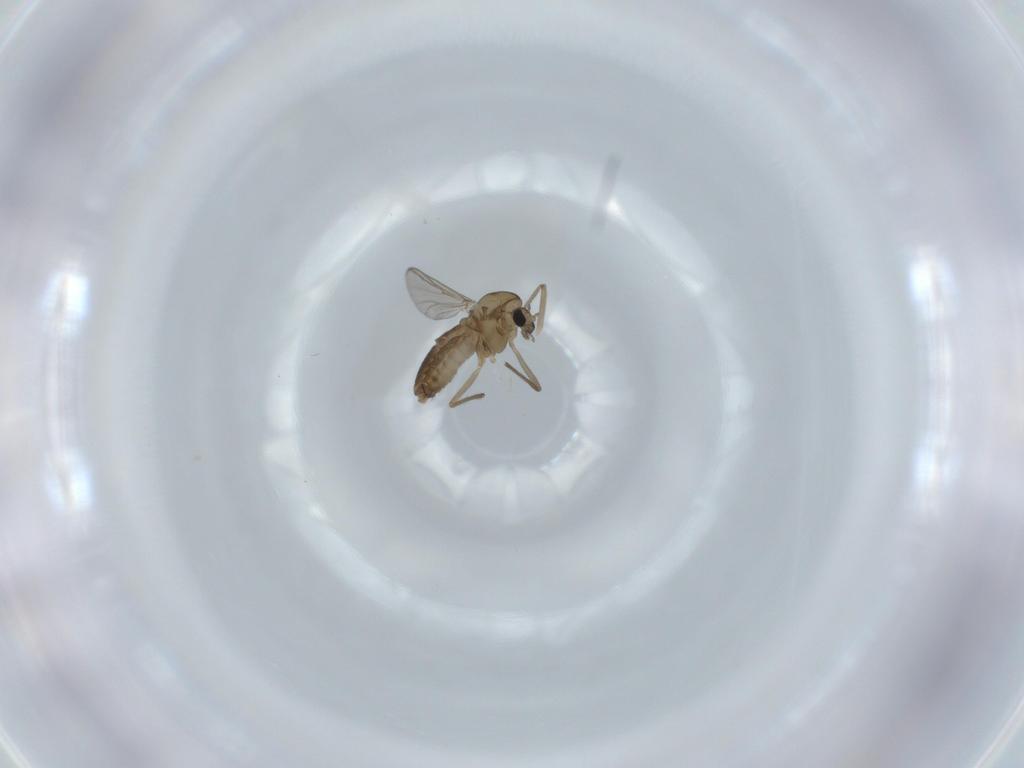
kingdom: Animalia
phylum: Arthropoda
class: Insecta
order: Diptera
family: Chironomidae
